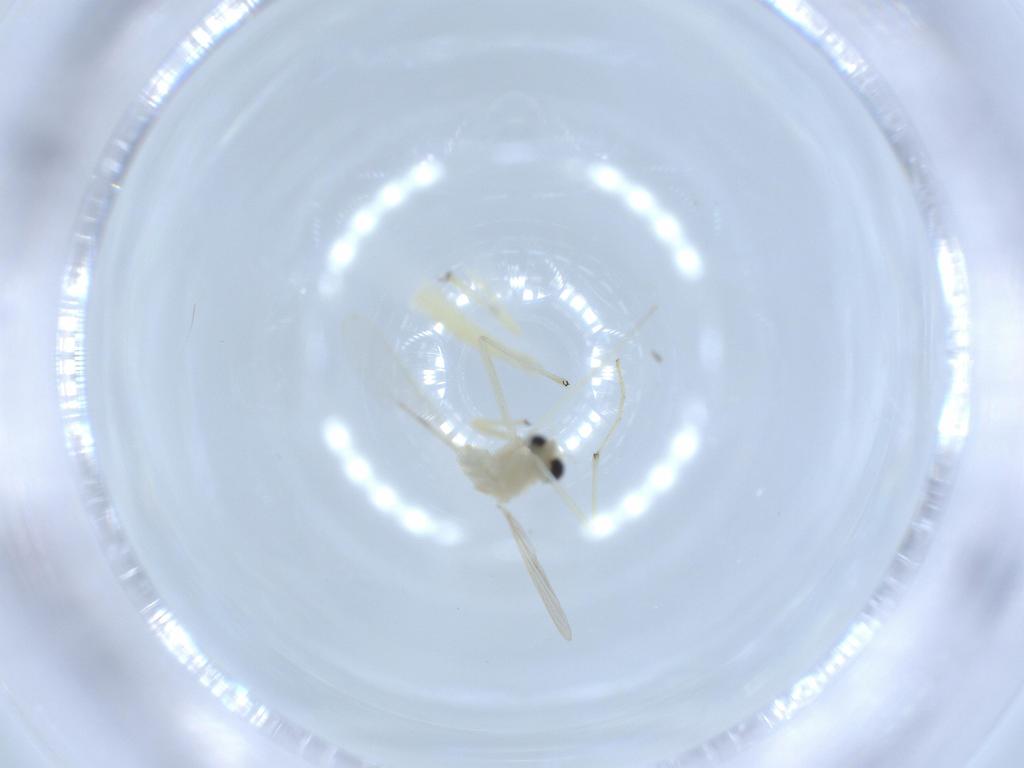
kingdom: Animalia
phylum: Arthropoda
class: Insecta
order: Diptera
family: Chironomidae
